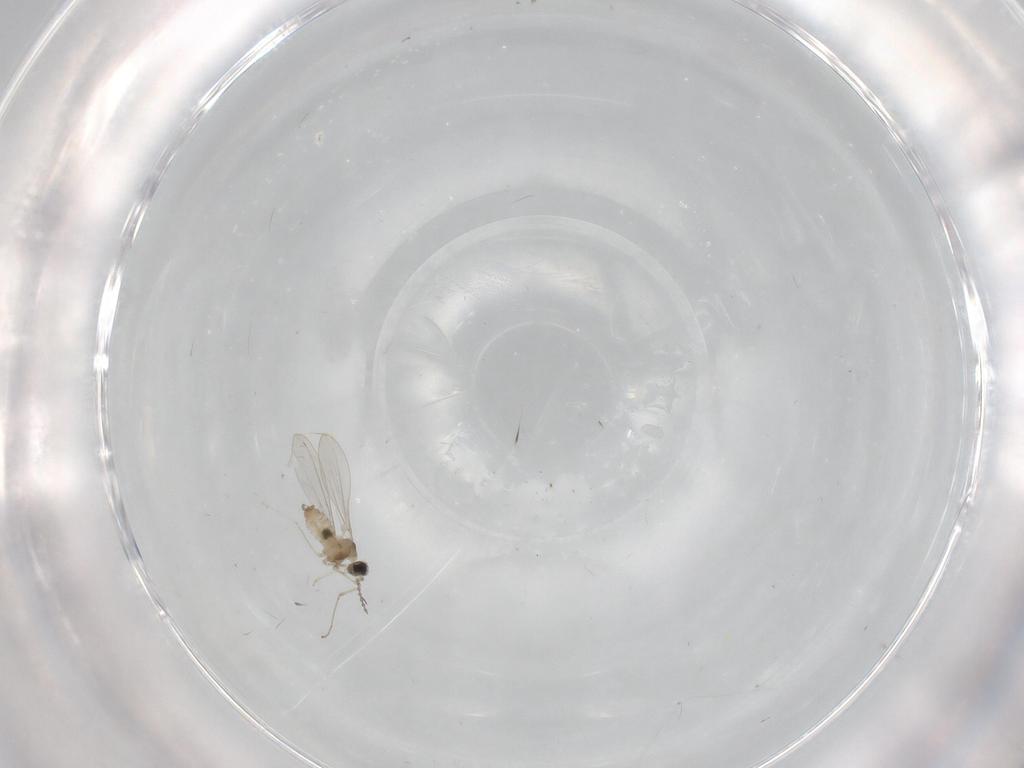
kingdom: Animalia
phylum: Arthropoda
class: Insecta
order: Diptera
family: Cecidomyiidae
